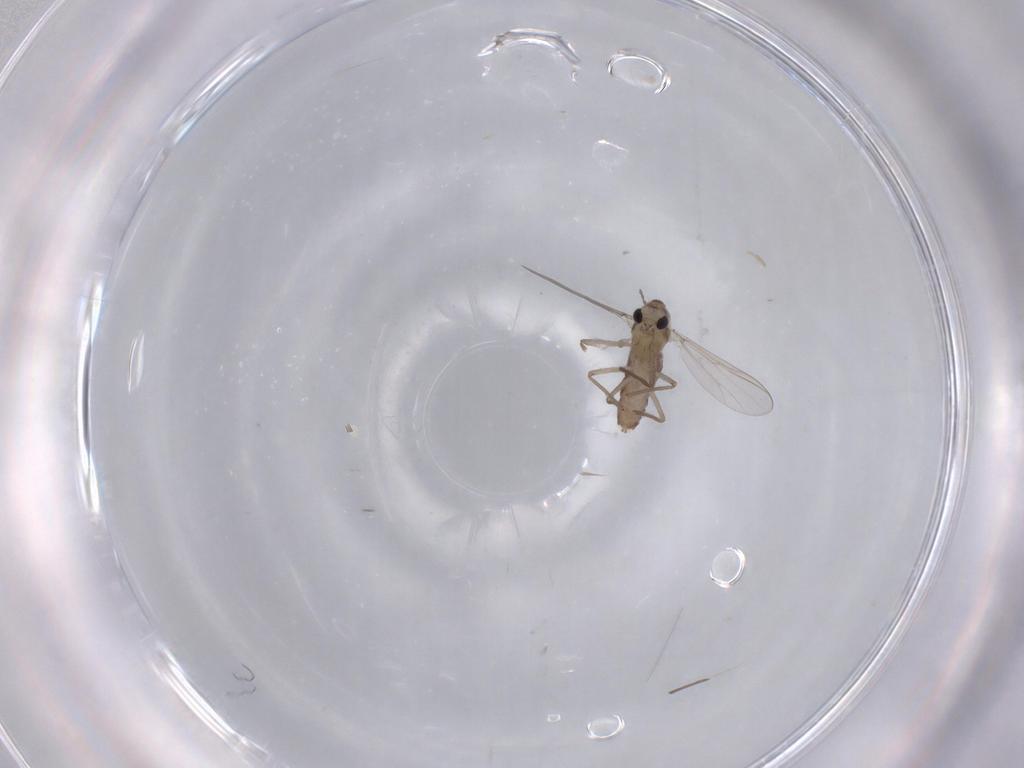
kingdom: Animalia
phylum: Arthropoda
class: Insecta
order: Diptera
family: Chironomidae
